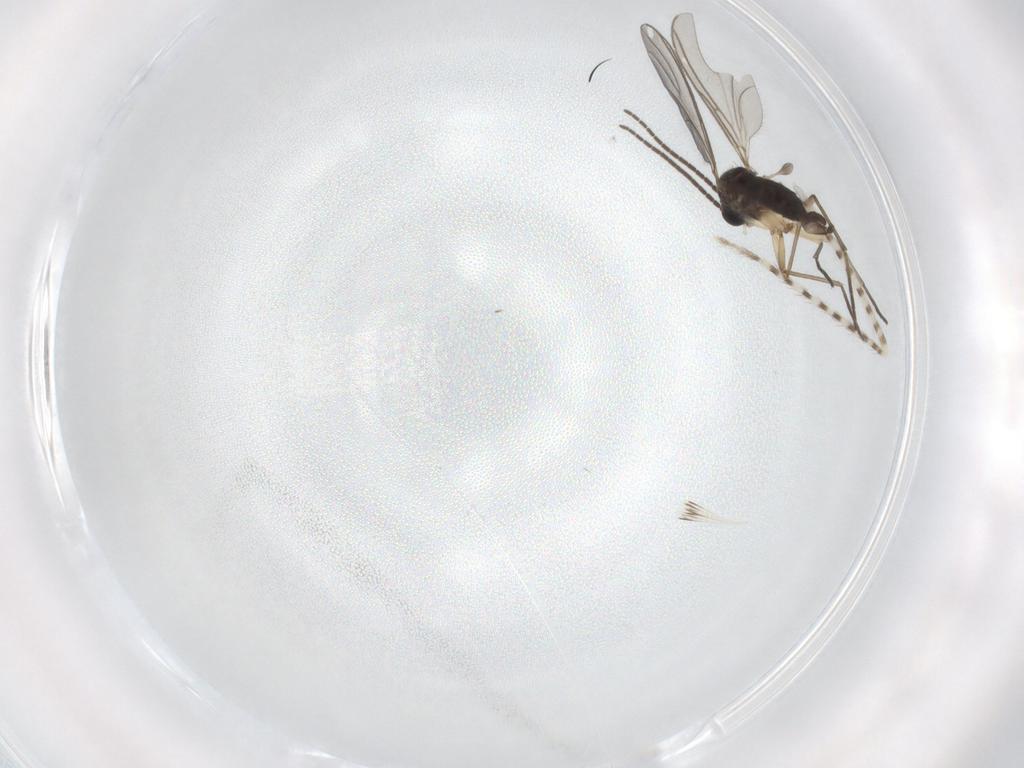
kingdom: Animalia
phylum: Arthropoda
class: Insecta
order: Diptera
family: Sciaridae
